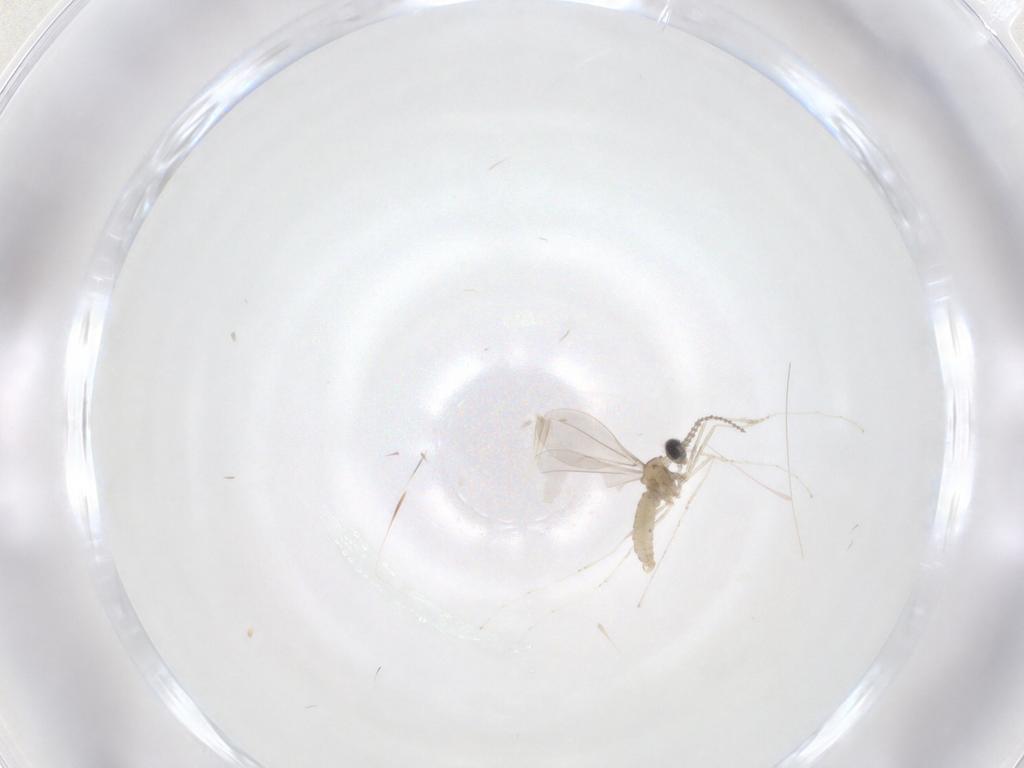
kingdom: Animalia
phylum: Arthropoda
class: Insecta
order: Diptera
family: Cecidomyiidae
